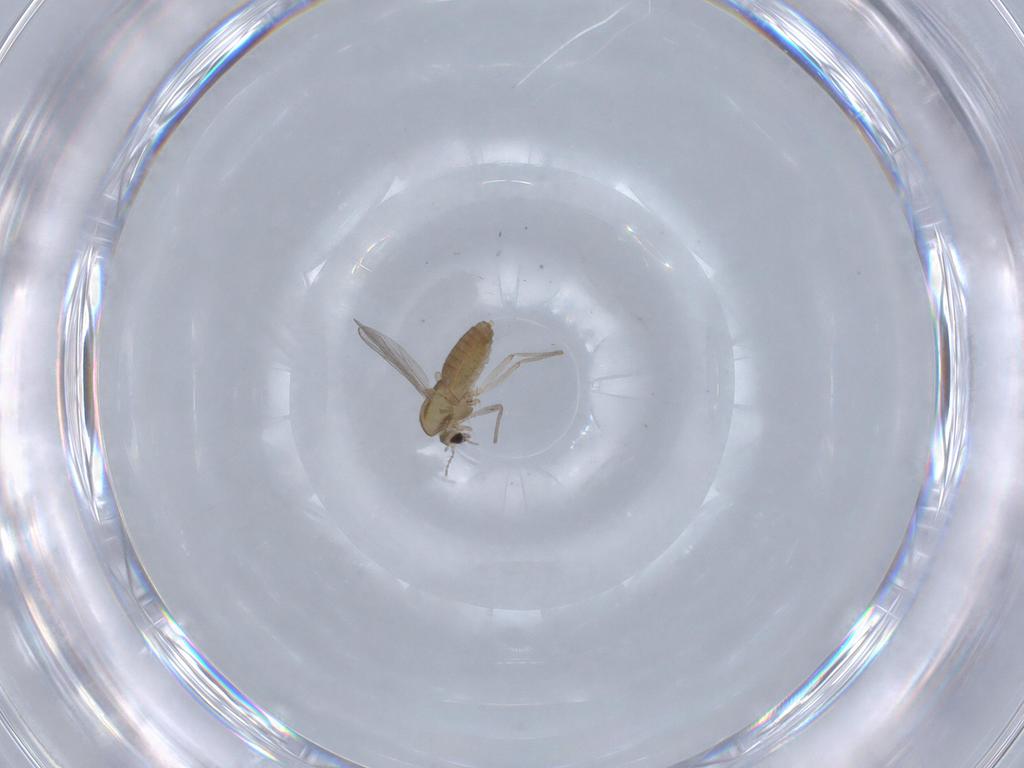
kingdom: Animalia
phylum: Arthropoda
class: Insecta
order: Diptera
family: Chironomidae
